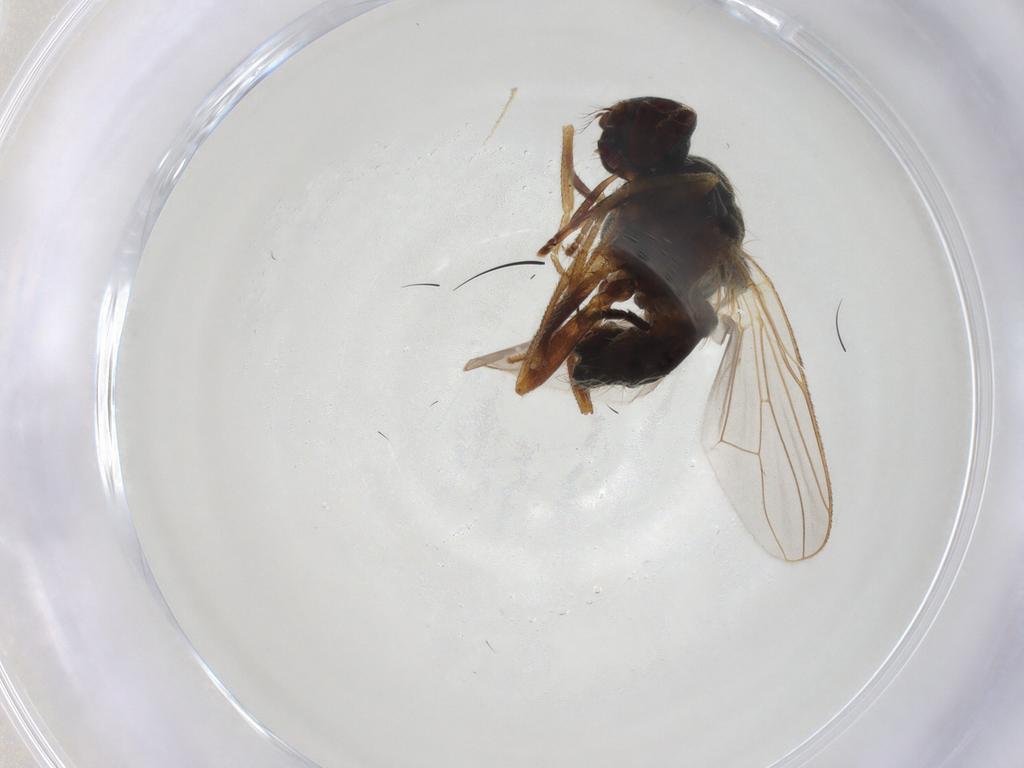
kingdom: Animalia
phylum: Arthropoda
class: Insecta
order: Diptera
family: Muscidae
